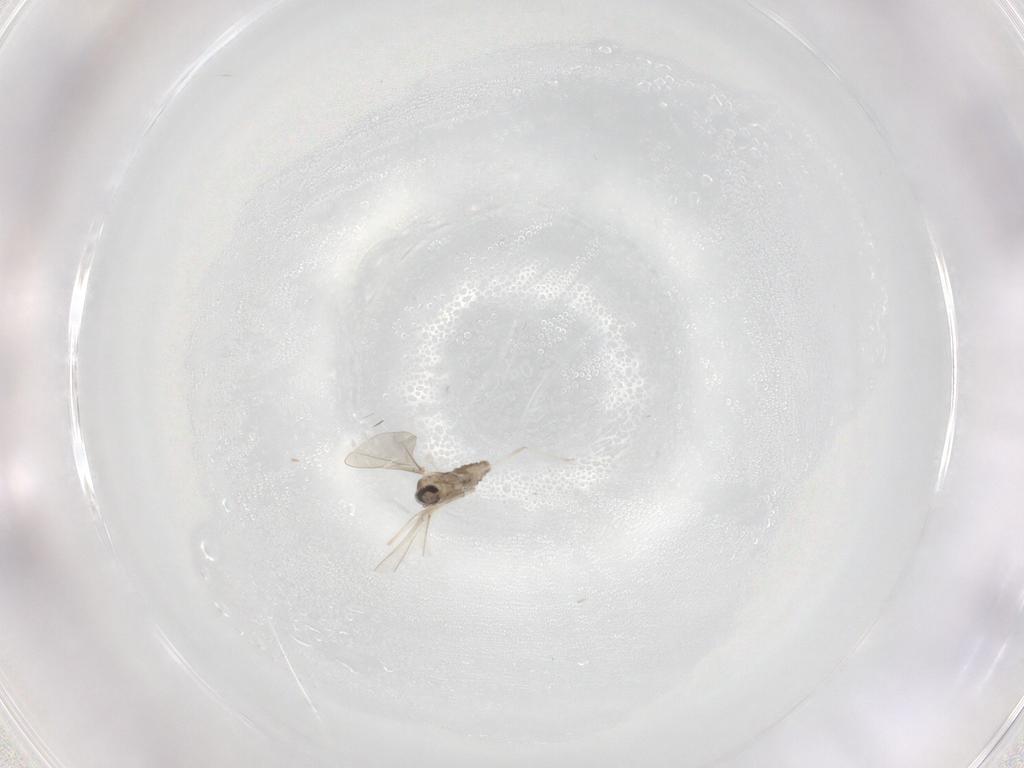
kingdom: Animalia
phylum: Arthropoda
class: Insecta
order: Diptera
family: Cecidomyiidae
